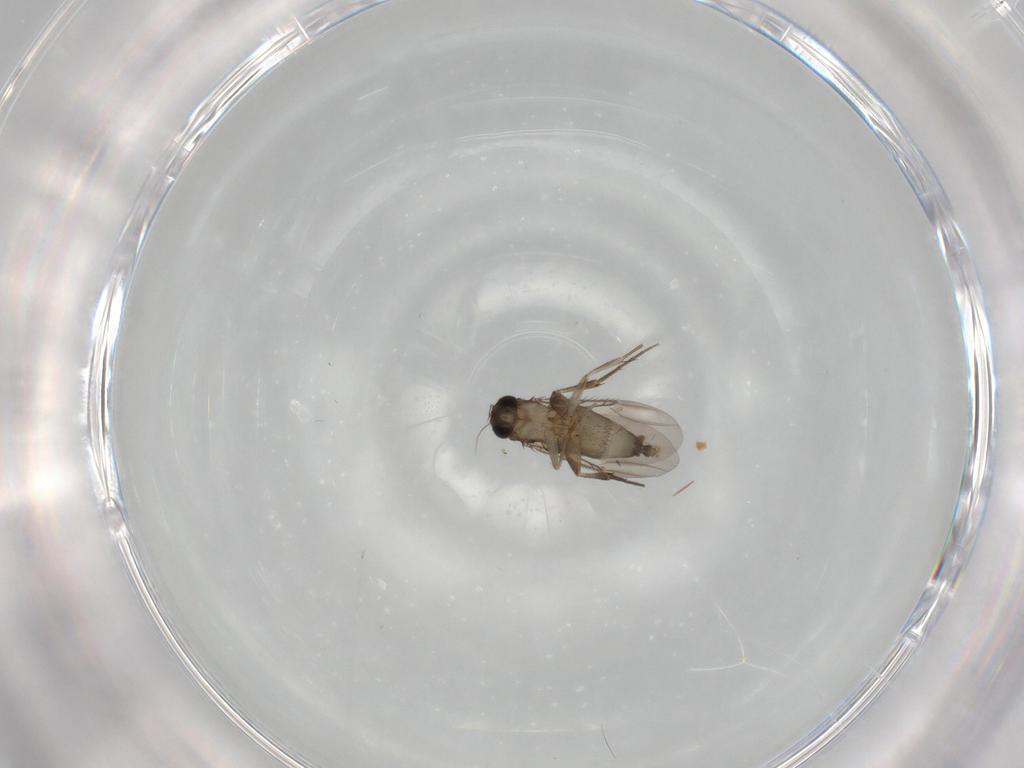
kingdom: Animalia
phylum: Arthropoda
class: Insecta
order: Diptera
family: Phoridae
